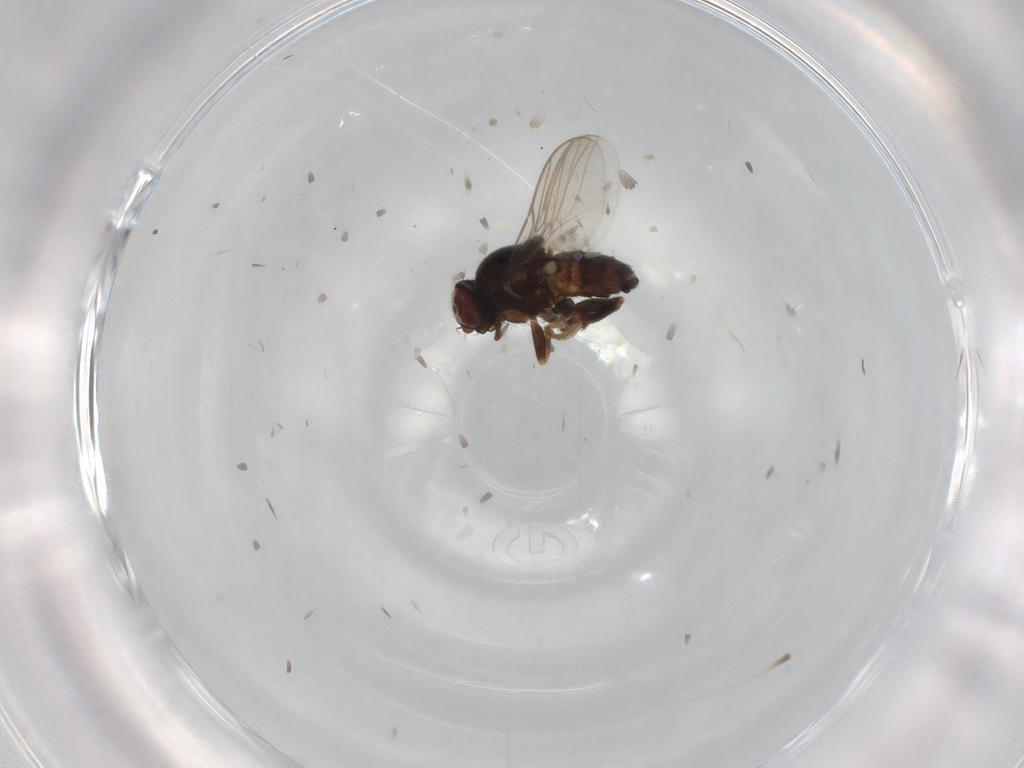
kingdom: Animalia
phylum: Arthropoda
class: Insecta
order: Diptera
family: Chloropidae
